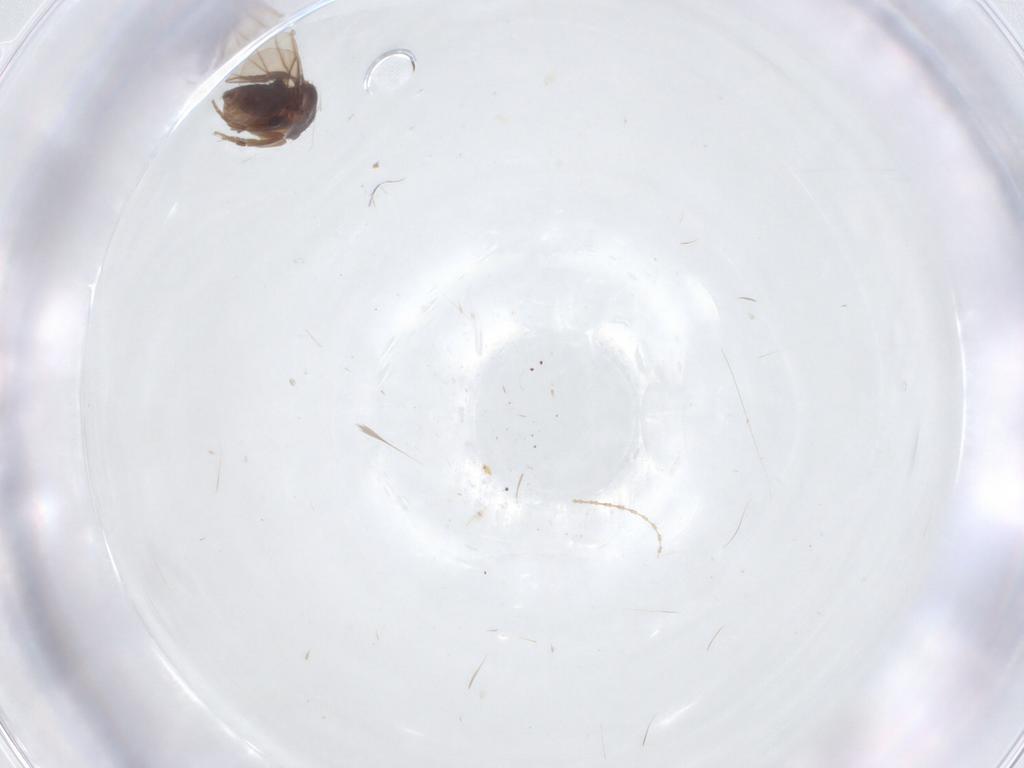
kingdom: Animalia
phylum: Arthropoda
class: Insecta
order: Diptera
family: Cecidomyiidae
